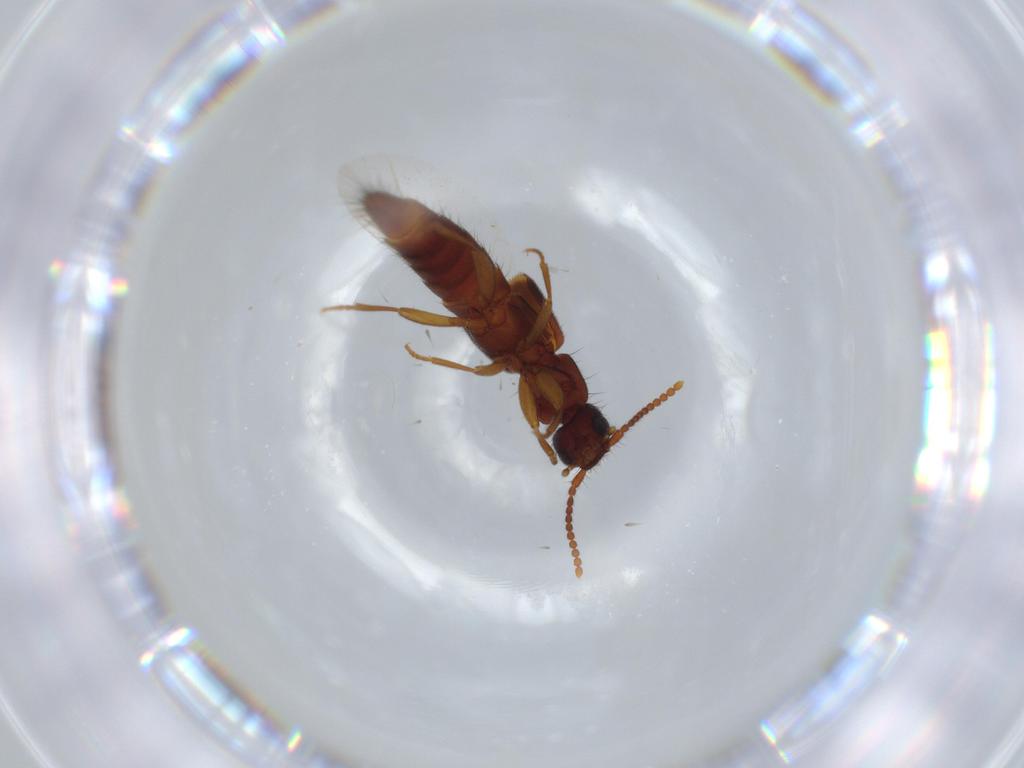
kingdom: Animalia
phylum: Arthropoda
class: Insecta
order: Coleoptera
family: Staphylinidae
